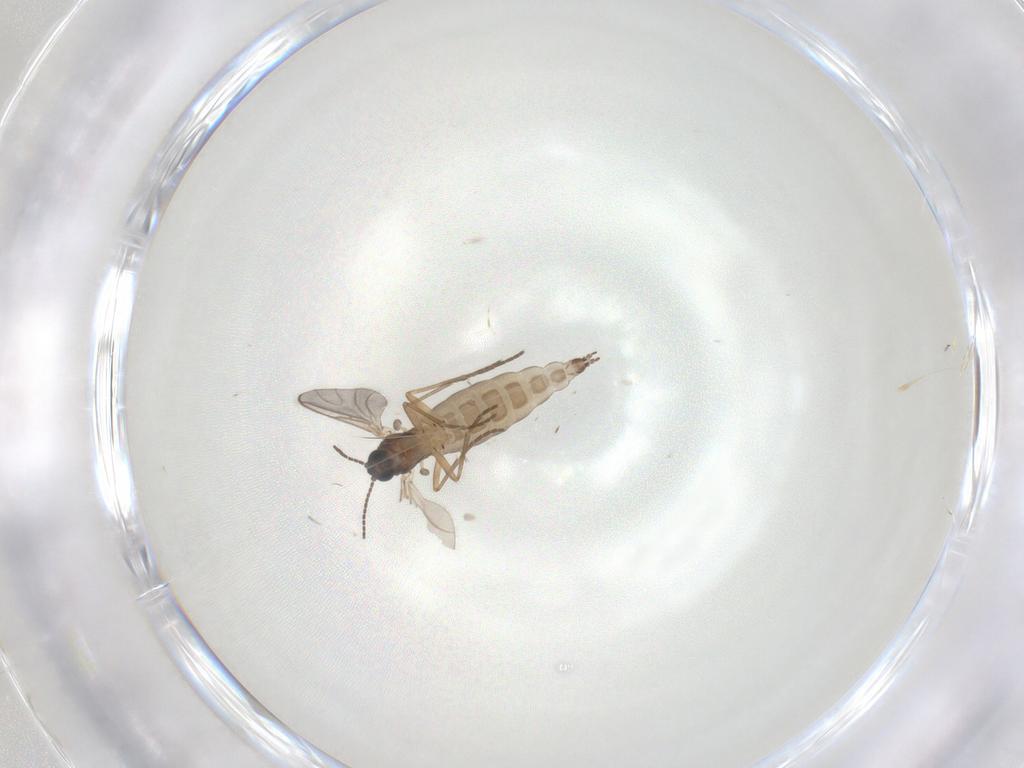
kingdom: Animalia
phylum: Arthropoda
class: Insecta
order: Diptera
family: Sciaridae
